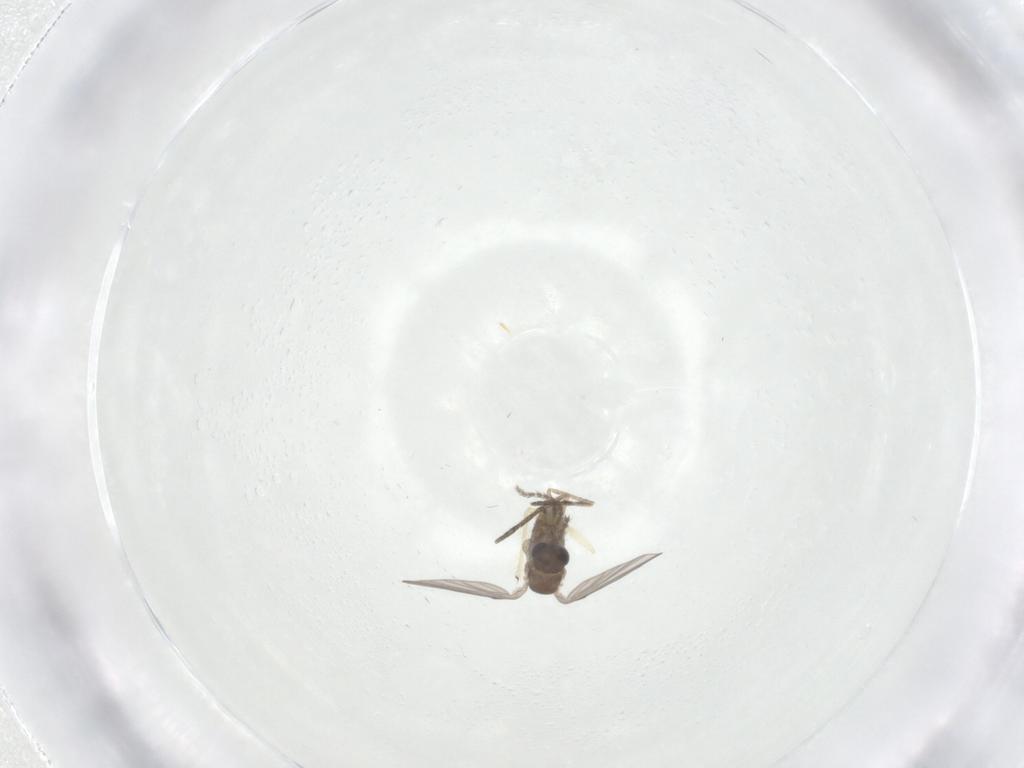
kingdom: Animalia
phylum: Arthropoda
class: Insecta
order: Diptera
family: Chironomidae
